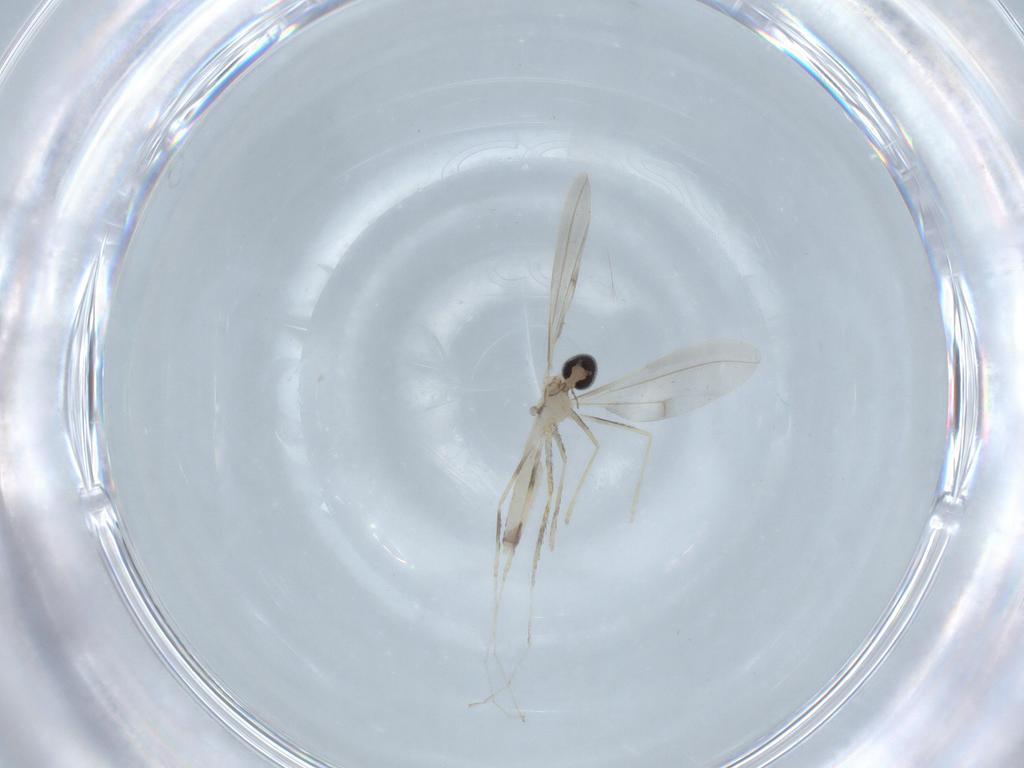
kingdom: Animalia
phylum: Arthropoda
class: Insecta
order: Diptera
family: Cecidomyiidae
